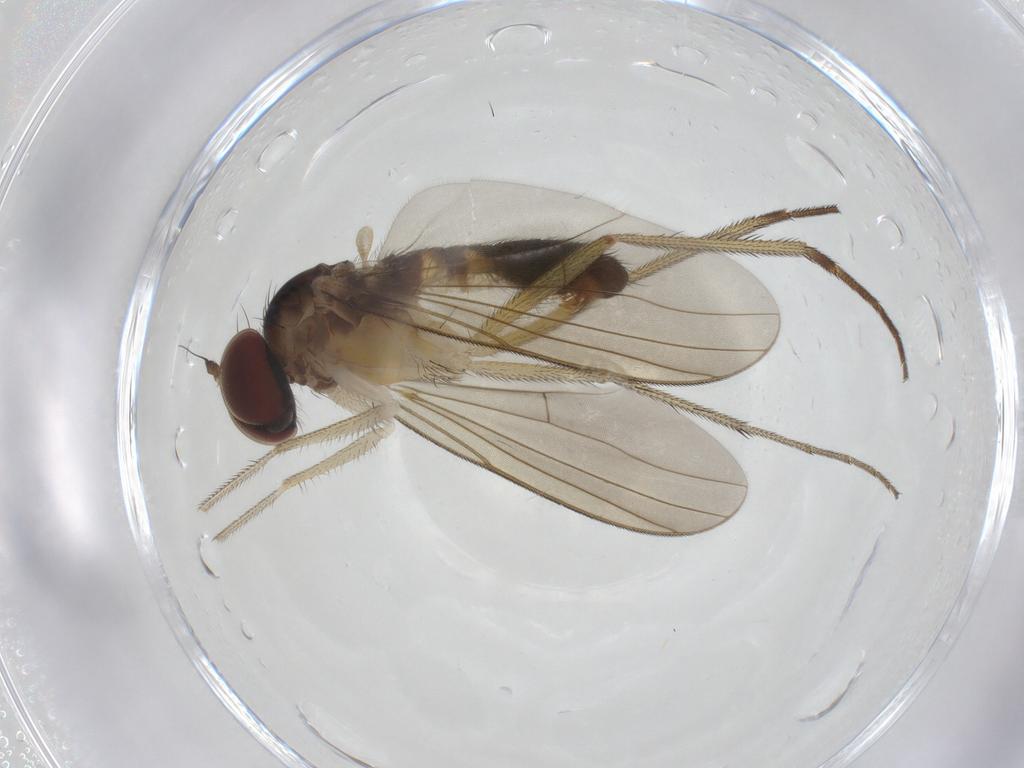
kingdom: Animalia
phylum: Arthropoda
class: Insecta
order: Diptera
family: Dolichopodidae
